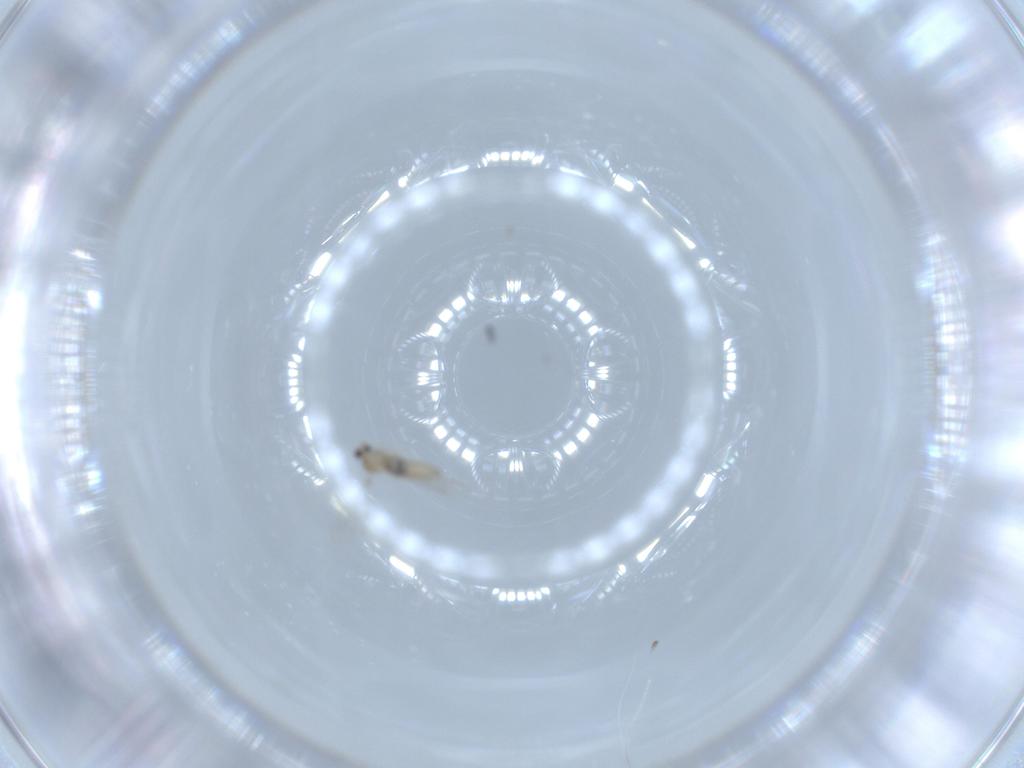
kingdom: Animalia
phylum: Arthropoda
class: Insecta
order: Diptera
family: Cecidomyiidae
